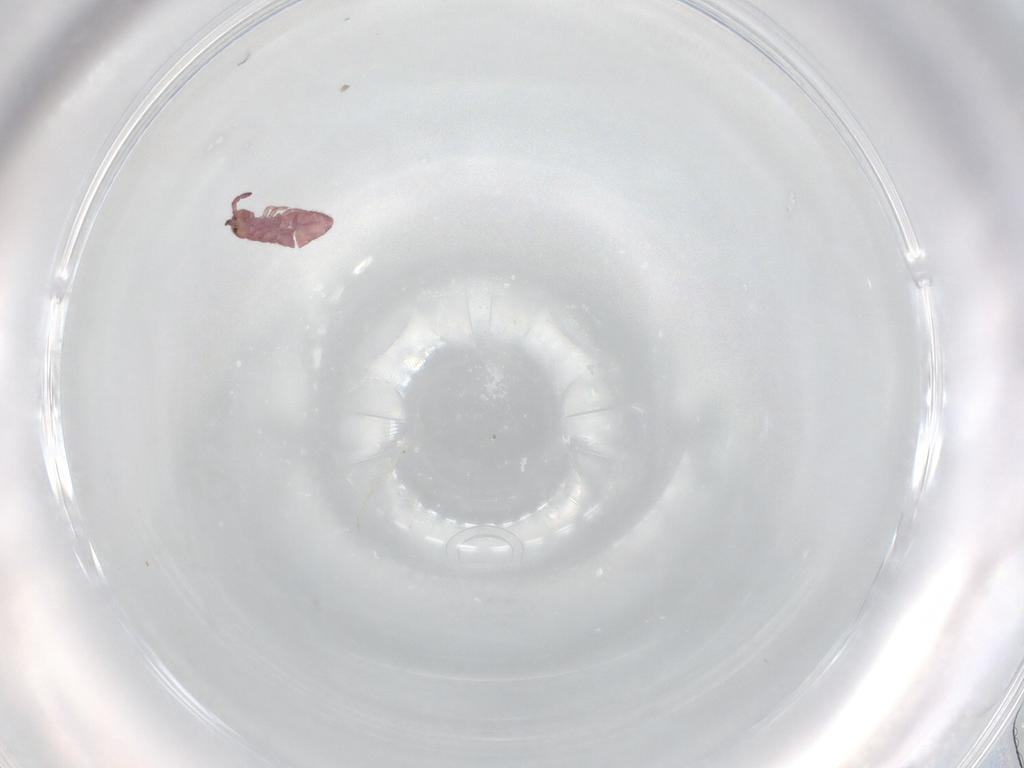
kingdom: Animalia
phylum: Arthropoda
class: Collembola
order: Entomobryomorpha
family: Isotomidae
